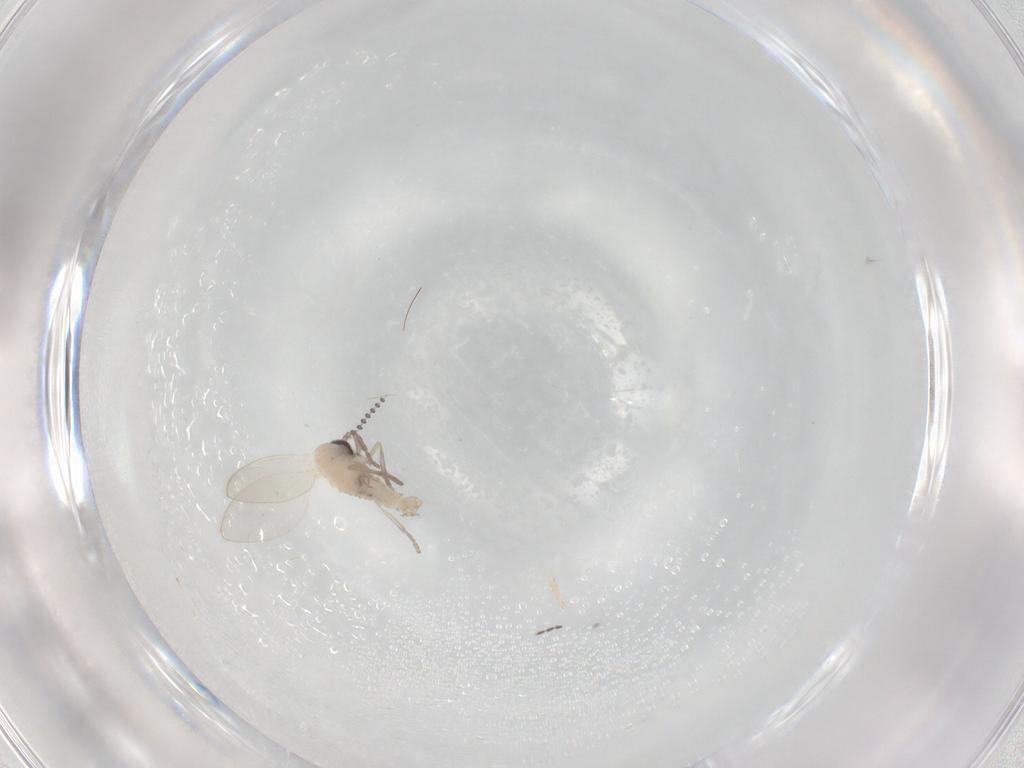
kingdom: Animalia
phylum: Arthropoda
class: Insecta
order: Diptera
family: Psychodidae
